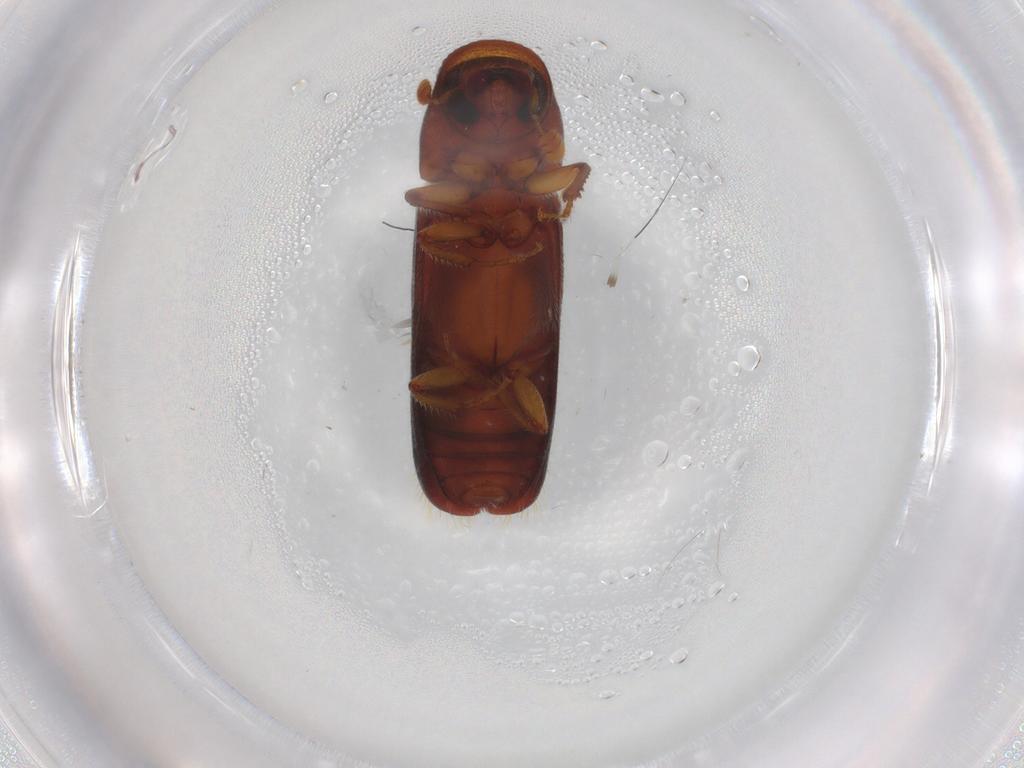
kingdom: Animalia
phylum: Arthropoda
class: Insecta
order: Coleoptera
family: Curculionidae
